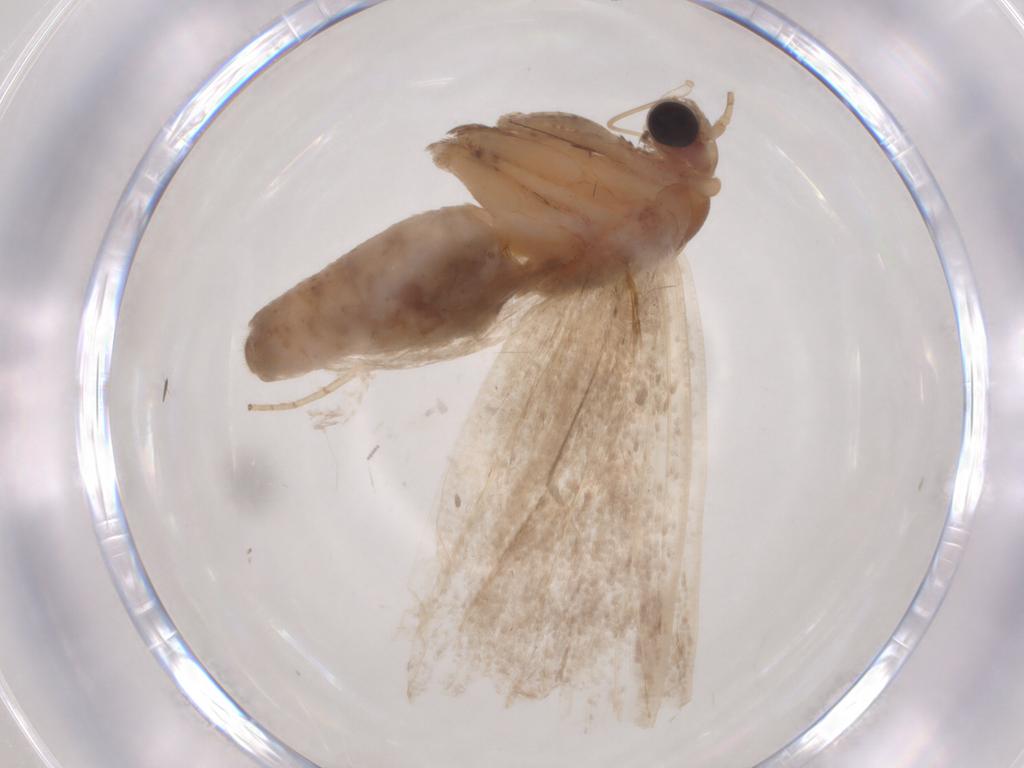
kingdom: Animalia
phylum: Arthropoda
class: Insecta
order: Lepidoptera
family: Nolidae
